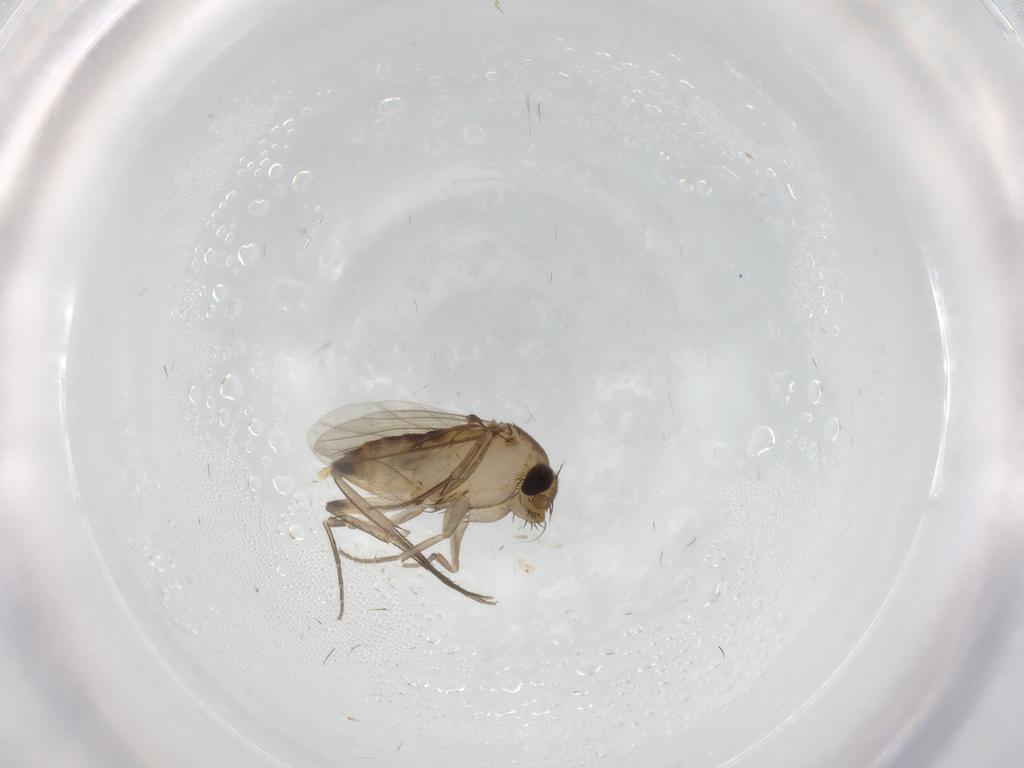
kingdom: Animalia
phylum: Arthropoda
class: Insecta
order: Diptera
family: Cecidomyiidae
